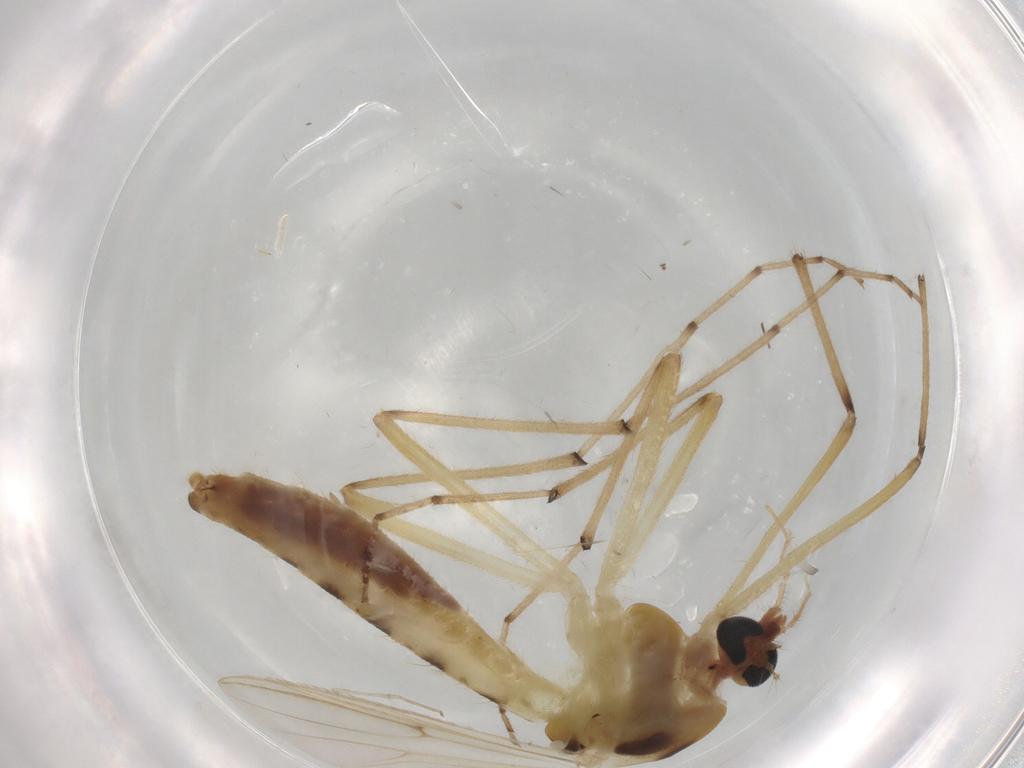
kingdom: Animalia
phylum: Arthropoda
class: Insecta
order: Diptera
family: Chironomidae
